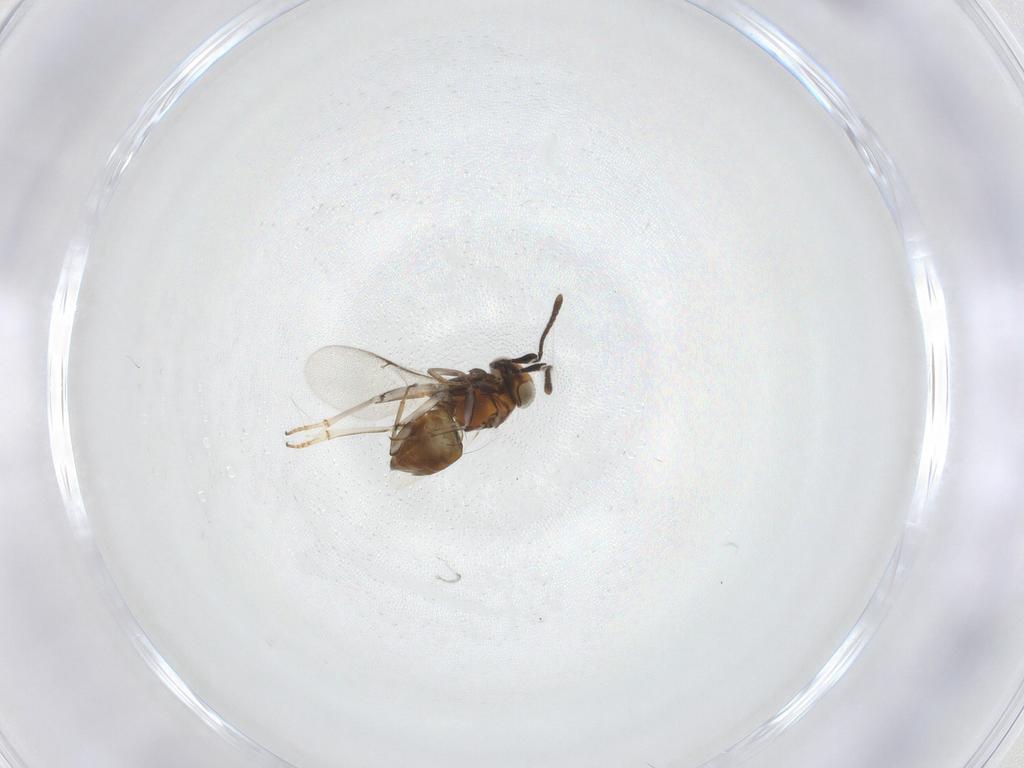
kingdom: Animalia
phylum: Arthropoda
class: Insecta
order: Hymenoptera
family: Encyrtidae
